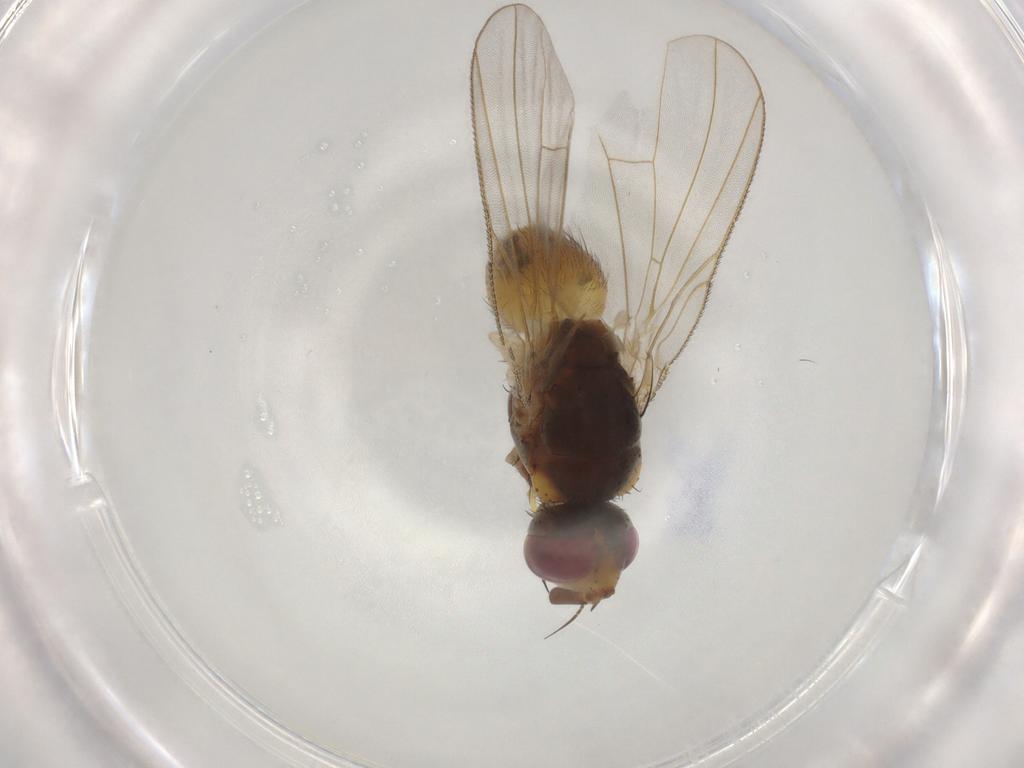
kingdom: Animalia
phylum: Arthropoda
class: Insecta
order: Diptera
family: Muscidae
